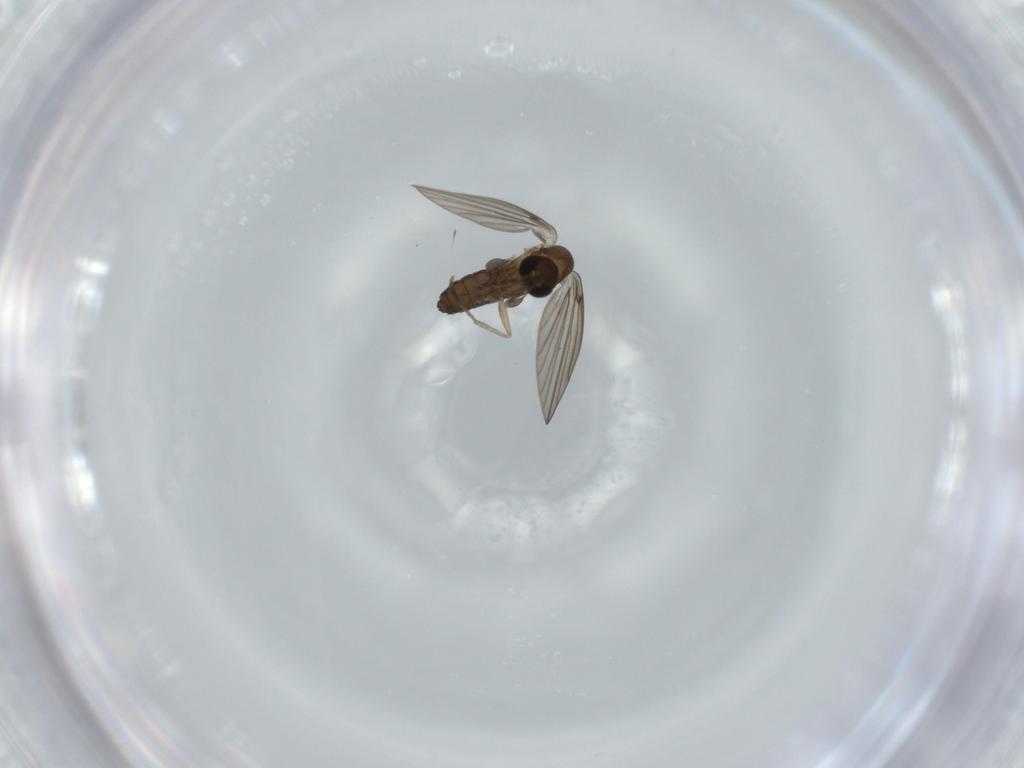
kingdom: Animalia
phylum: Arthropoda
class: Insecta
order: Diptera
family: Psychodidae
